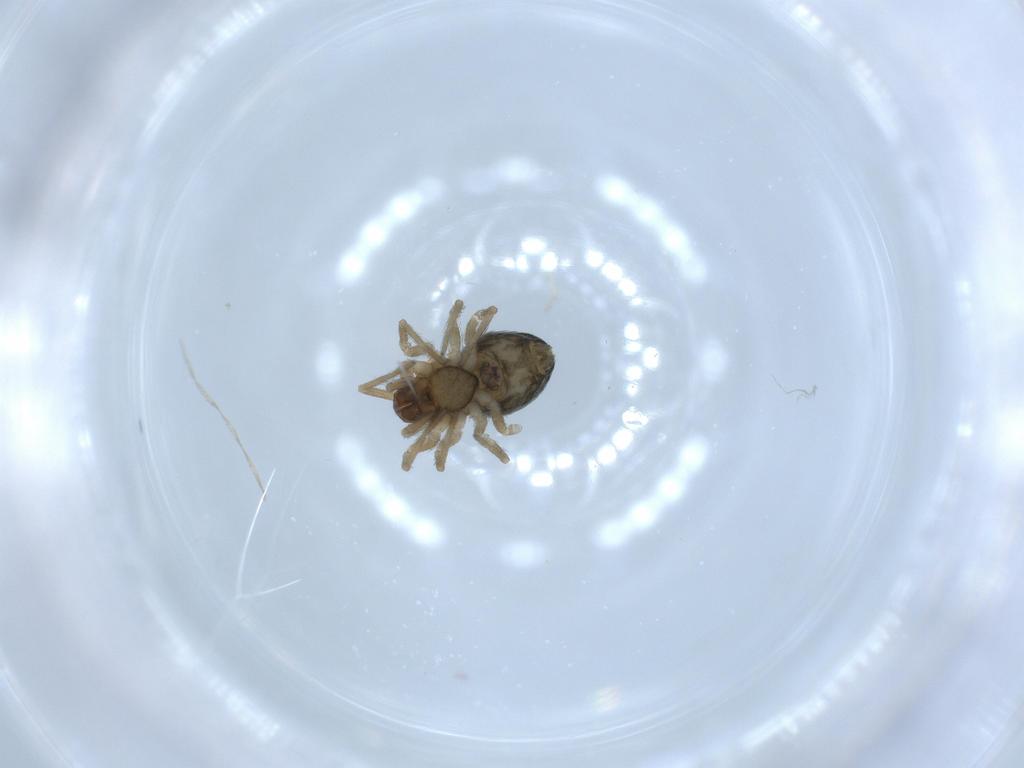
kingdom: Animalia
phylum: Arthropoda
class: Arachnida
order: Araneae
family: Dictynidae
